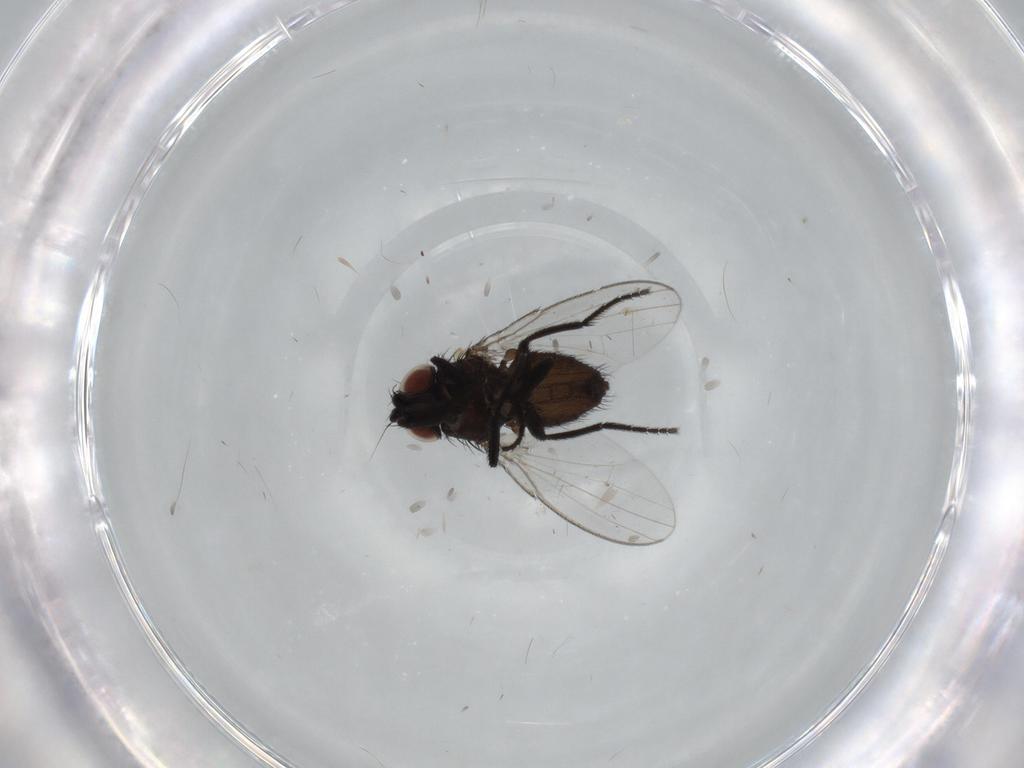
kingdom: Animalia
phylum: Arthropoda
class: Insecta
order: Diptera
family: Milichiidae
